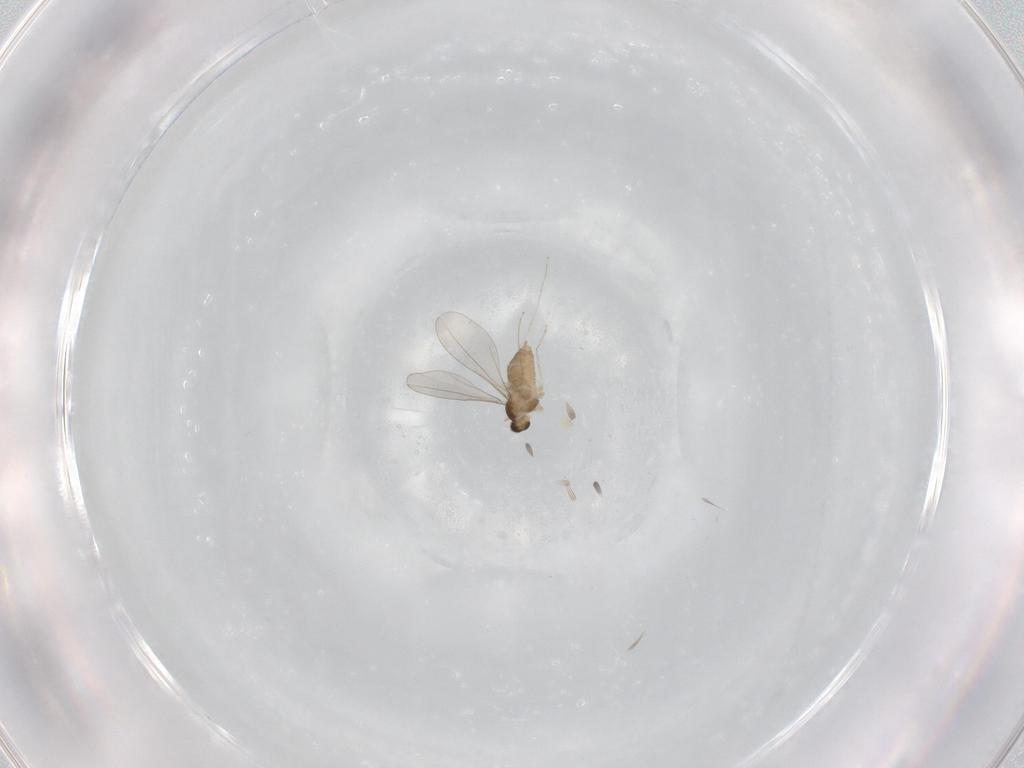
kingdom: Animalia
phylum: Arthropoda
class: Insecta
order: Diptera
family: Cecidomyiidae
